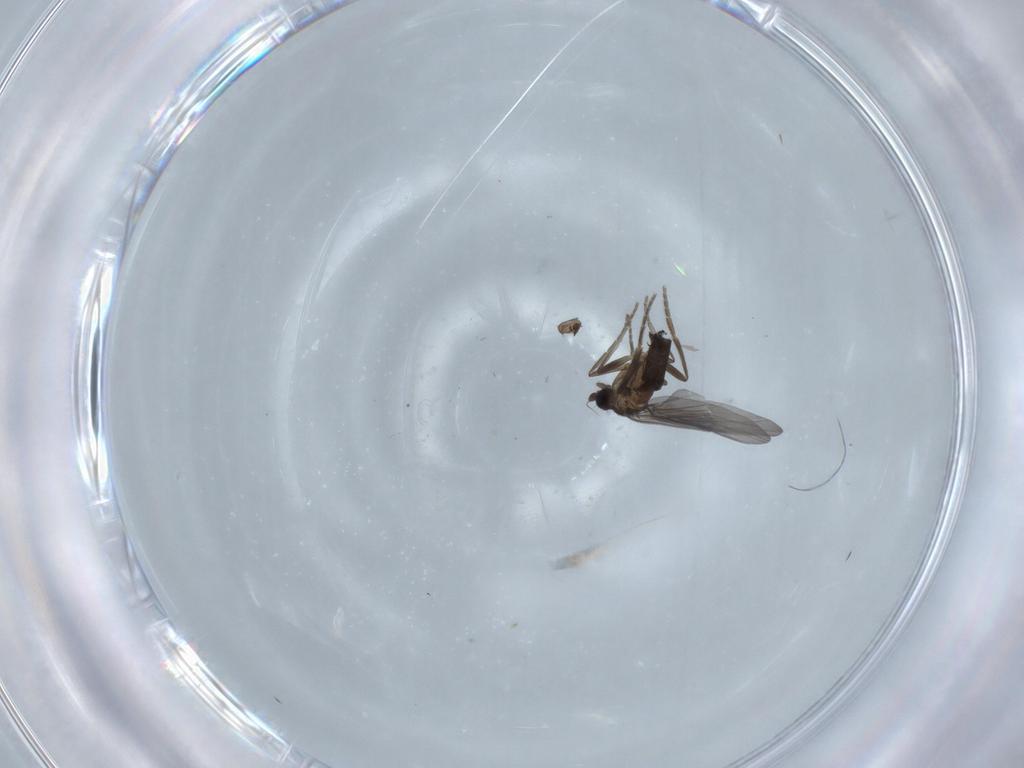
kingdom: Animalia
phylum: Arthropoda
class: Insecta
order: Diptera
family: Phoridae
